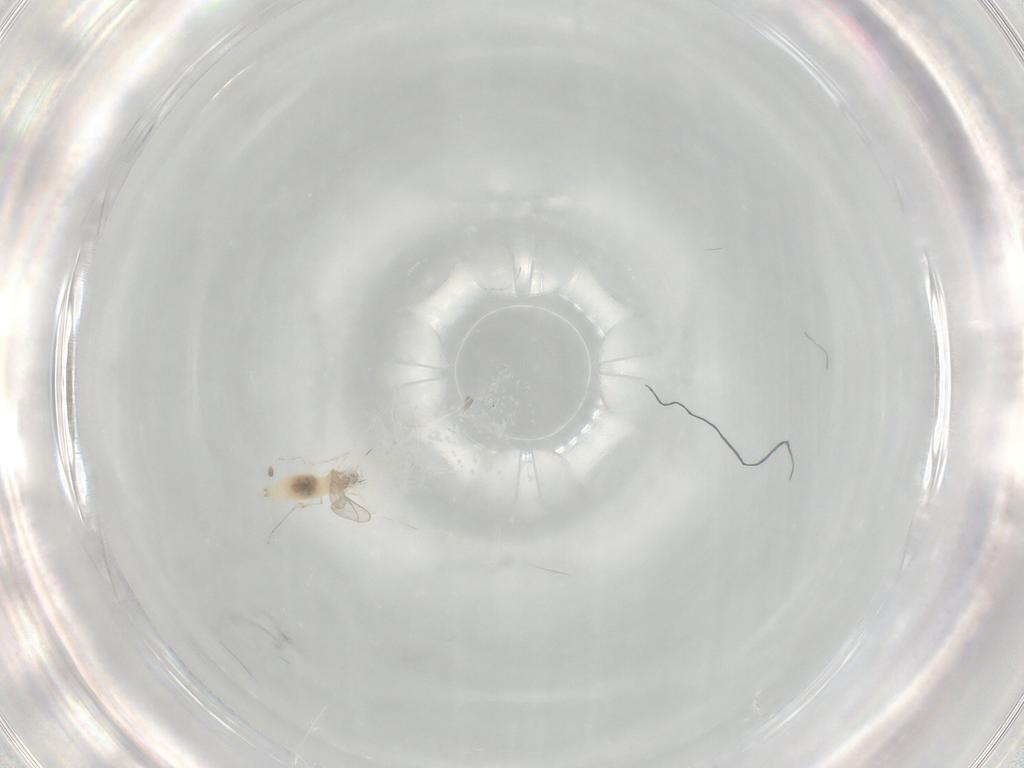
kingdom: Animalia
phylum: Arthropoda
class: Insecta
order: Diptera
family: Cecidomyiidae
